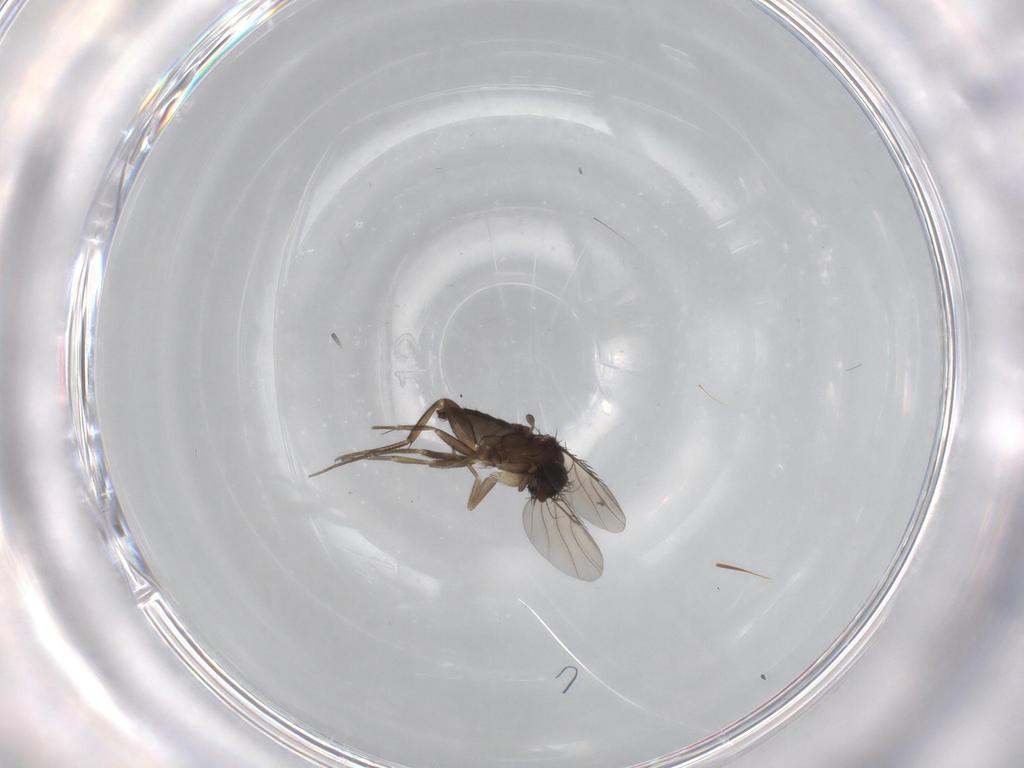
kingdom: Animalia
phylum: Arthropoda
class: Insecta
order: Diptera
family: Phoridae
